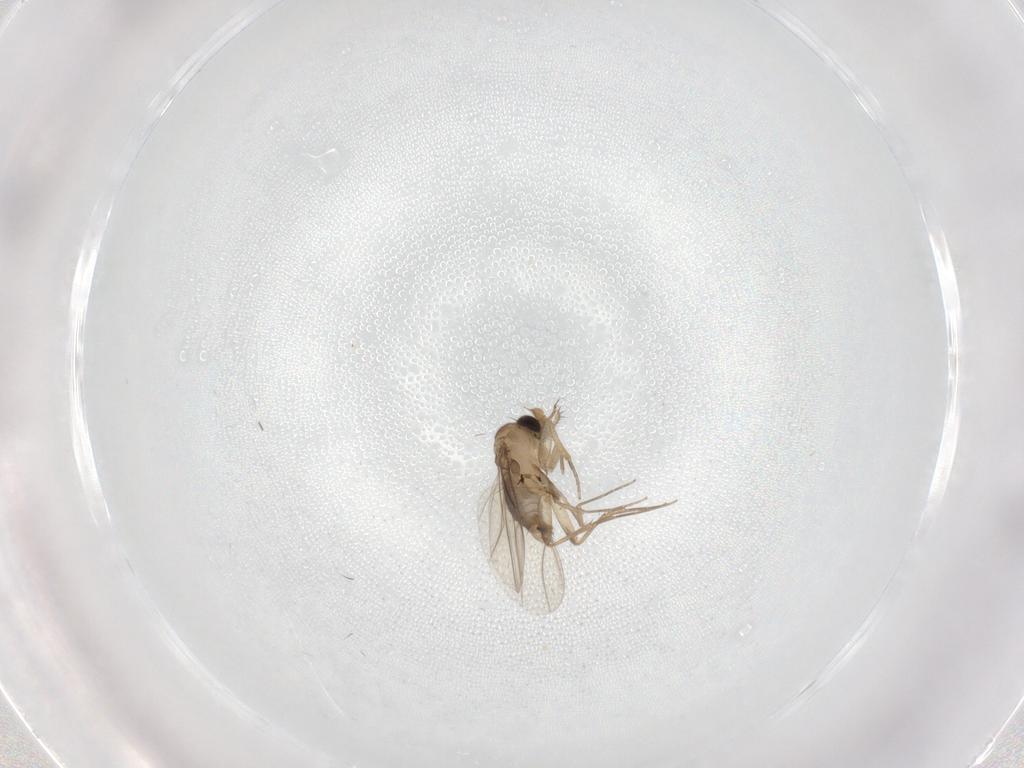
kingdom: Animalia
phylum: Arthropoda
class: Insecta
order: Diptera
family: Phoridae
